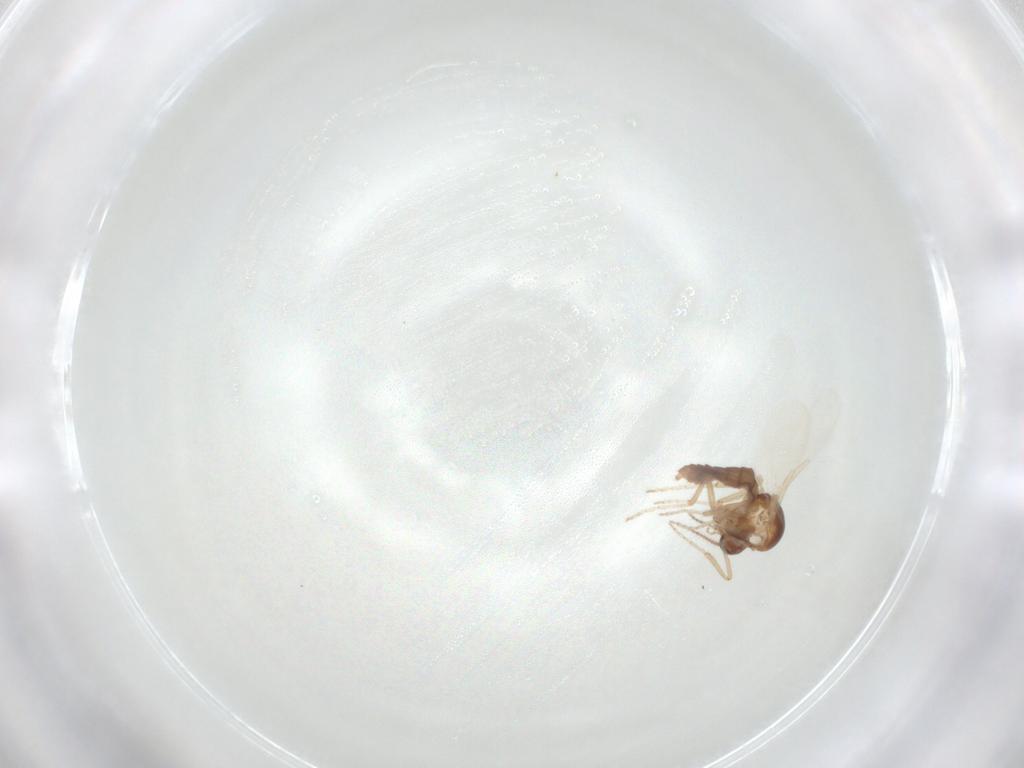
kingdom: Animalia
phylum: Arthropoda
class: Insecta
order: Diptera
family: Ceratopogonidae
